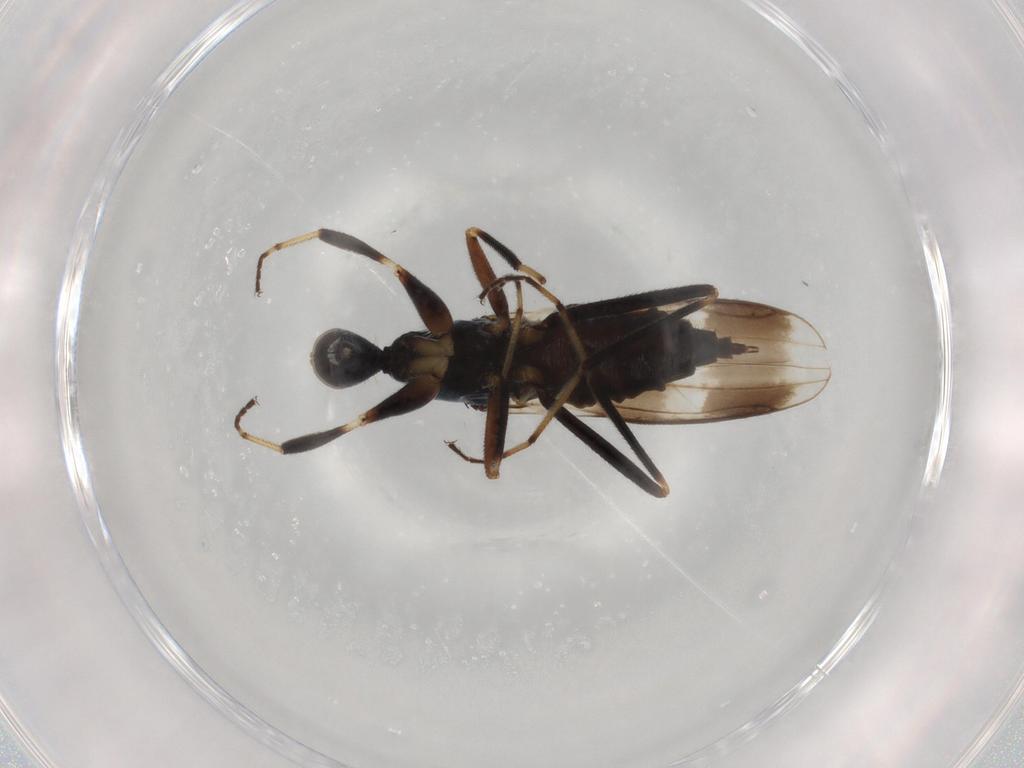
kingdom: Animalia
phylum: Arthropoda
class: Insecta
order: Diptera
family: Hybotidae
